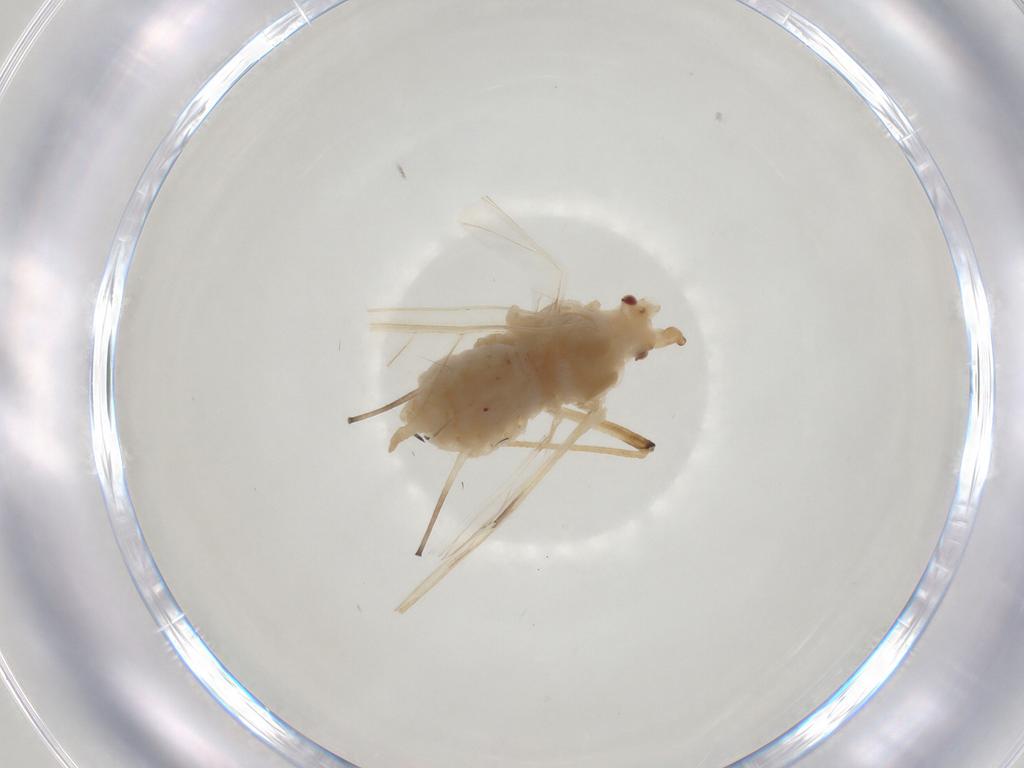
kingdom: Animalia
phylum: Arthropoda
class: Insecta
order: Hemiptera
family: Aphididae
